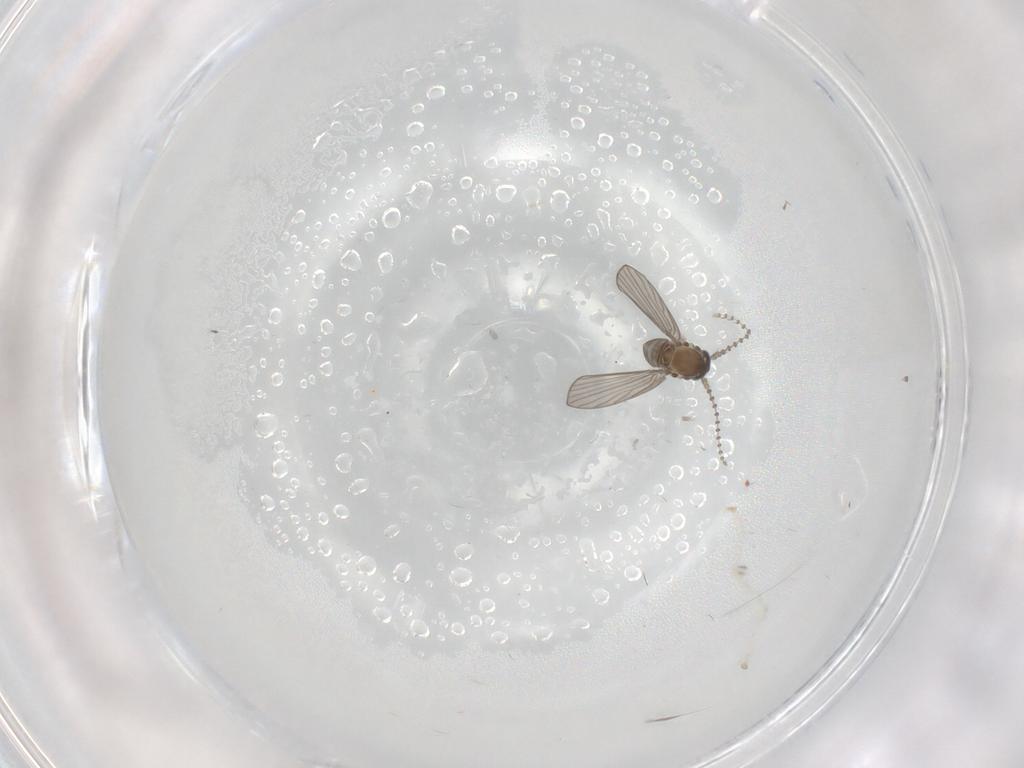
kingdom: Animalia
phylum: Arthropoda
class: Insecta
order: Diptera
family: Psychodidae
